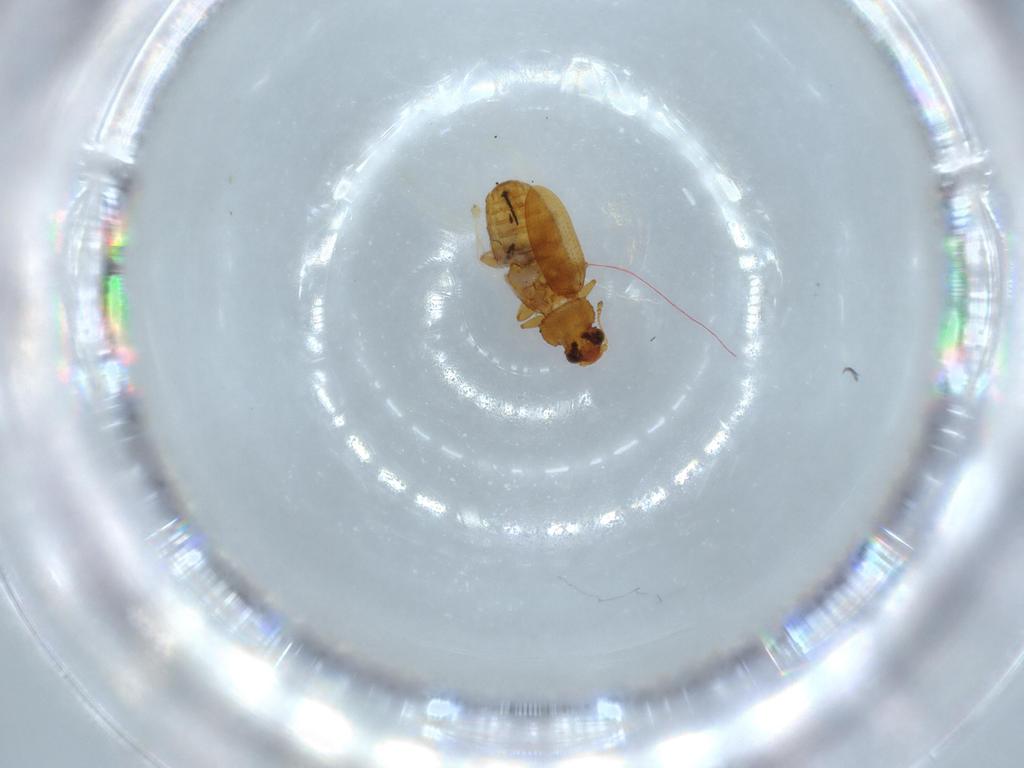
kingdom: Animalia
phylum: Arthropoda
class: Insecta
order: Coleoptera
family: Latridiidae
